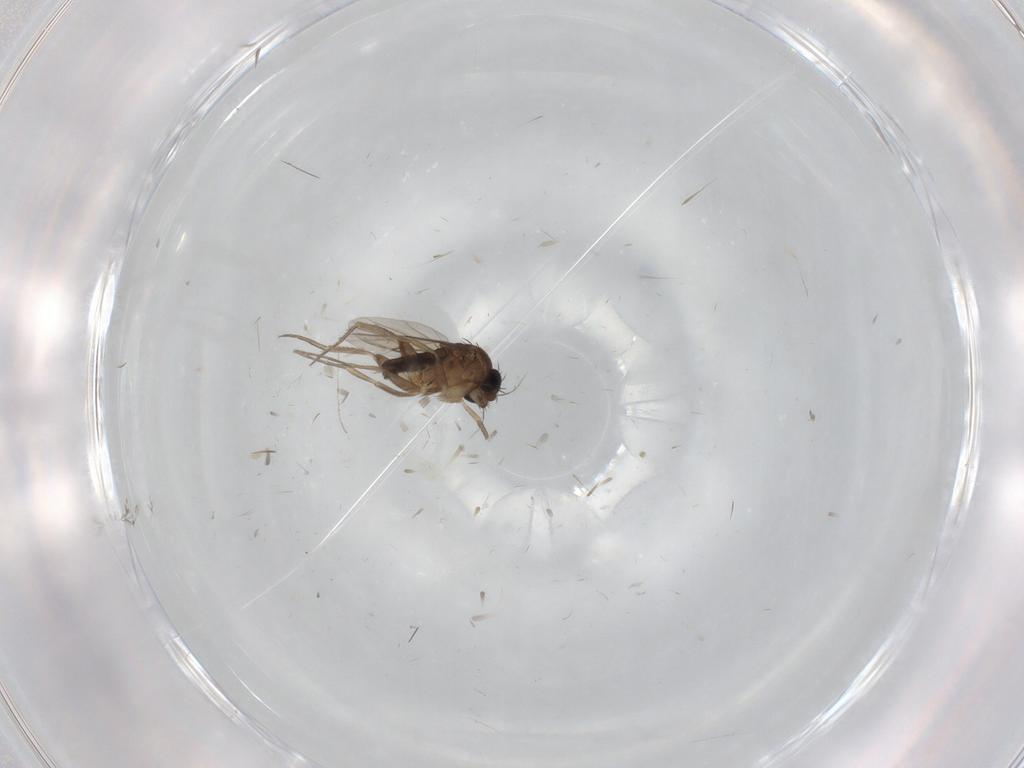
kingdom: Animalia
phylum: Arthropoda
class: Insecta
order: Diptera
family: Phoridae
